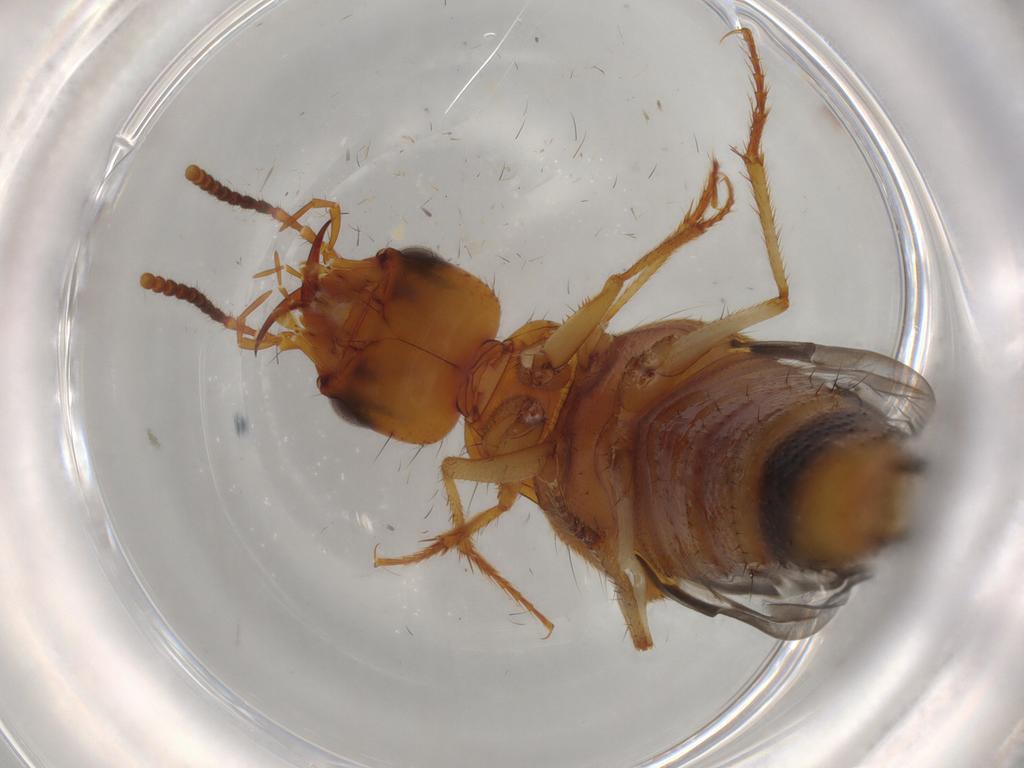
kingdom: Animalia
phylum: Arthropoda
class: Insecta
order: Coleoptera
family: Staphylinidae
